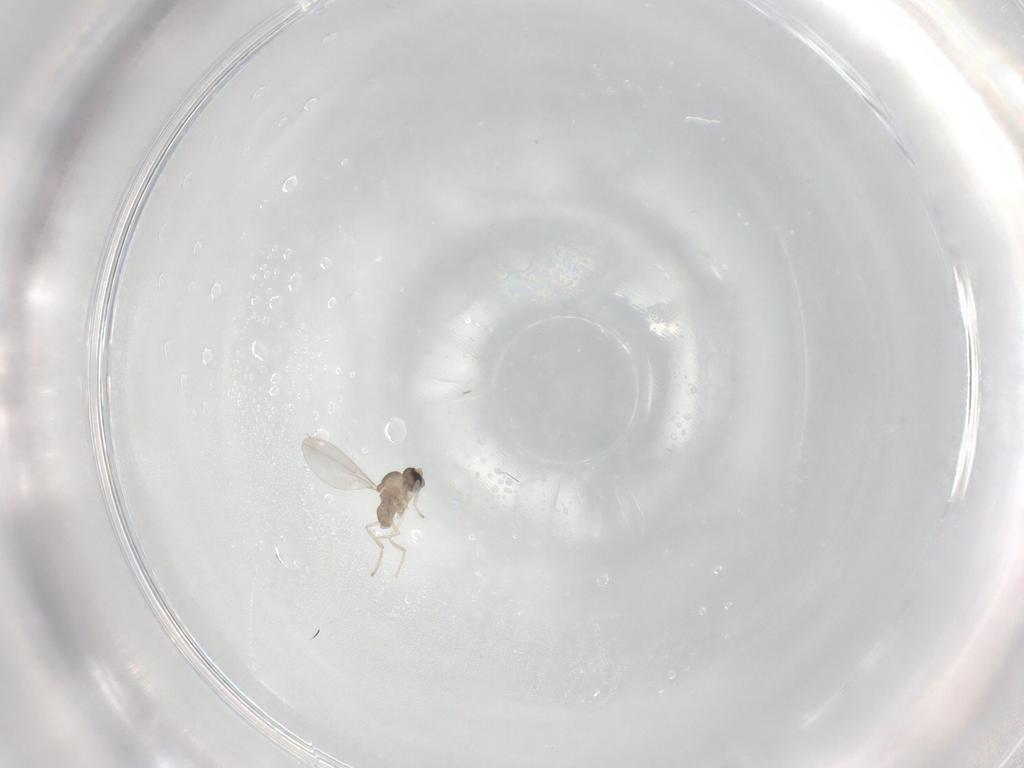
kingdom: Animalia
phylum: Arthropoda
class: Insecta
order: Diptera
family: Cecidomyiidae
